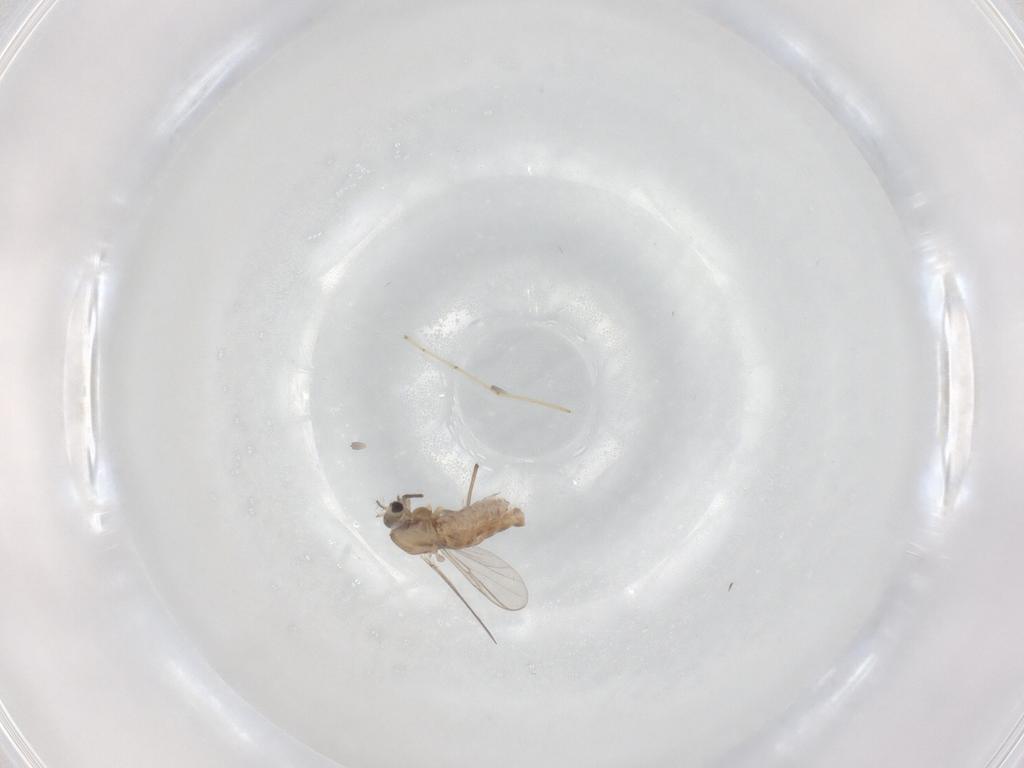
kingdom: Animalia
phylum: Arthropoda
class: Insecta
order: Diptera
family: Chironomidae
